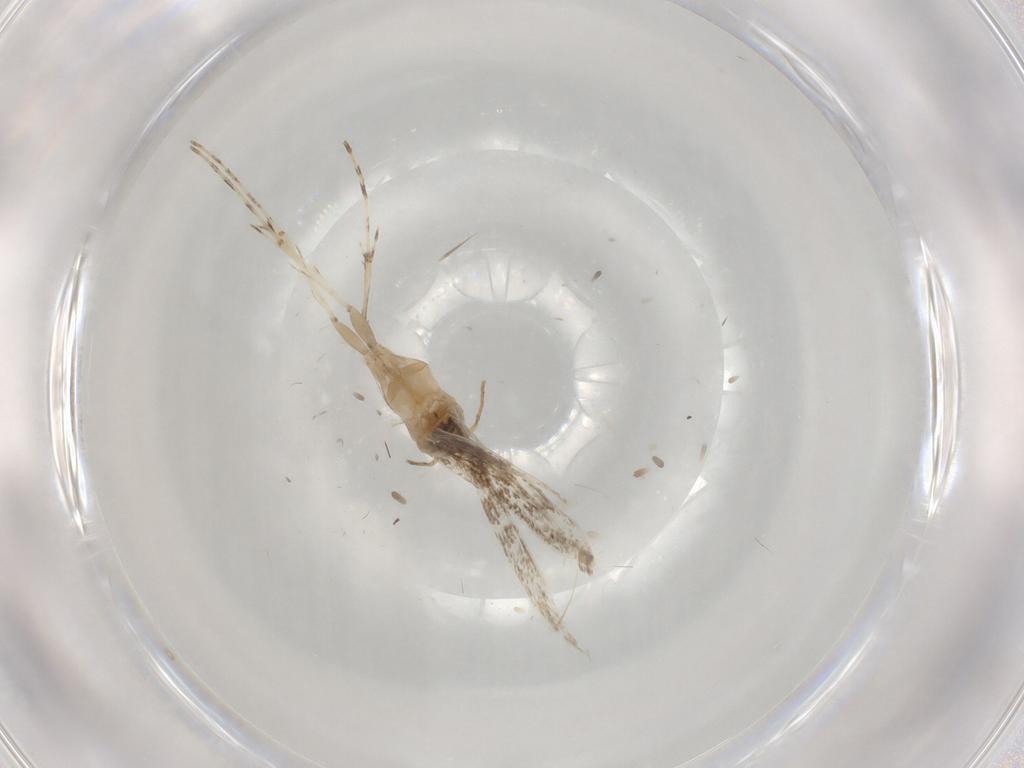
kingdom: Animalia
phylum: Arthropoda
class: Insecta
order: Lepidoptera
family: Gracillariidae
